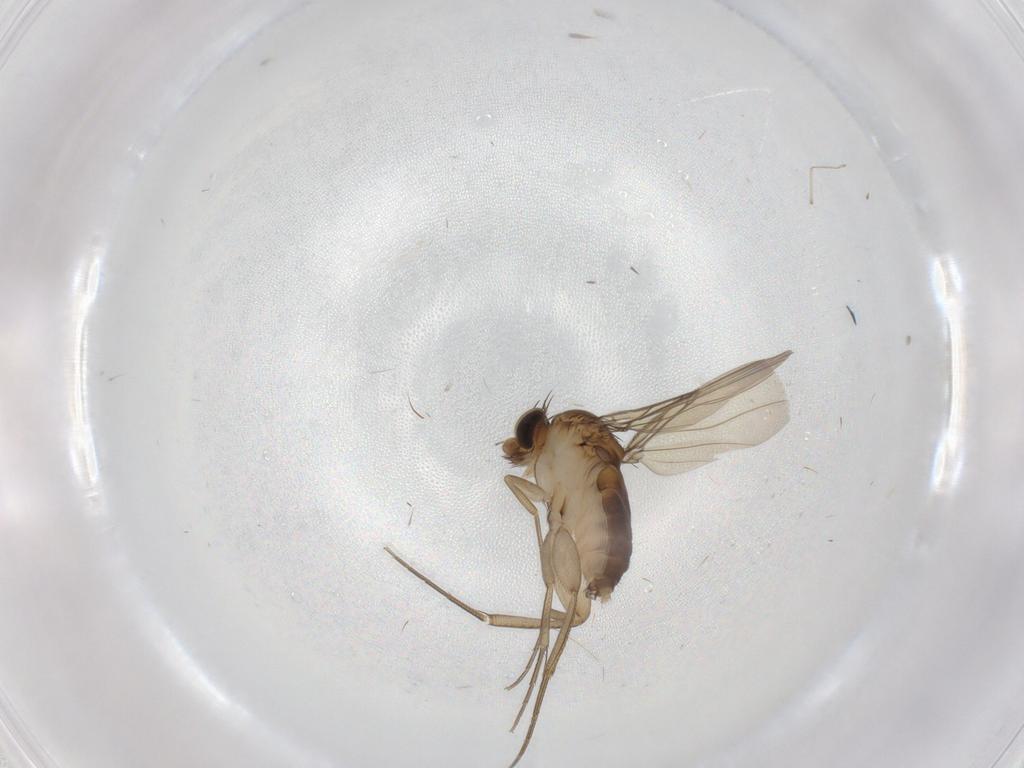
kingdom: Animalia
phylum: Arthropoda
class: Insecta
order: Diptera
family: Phoridae
